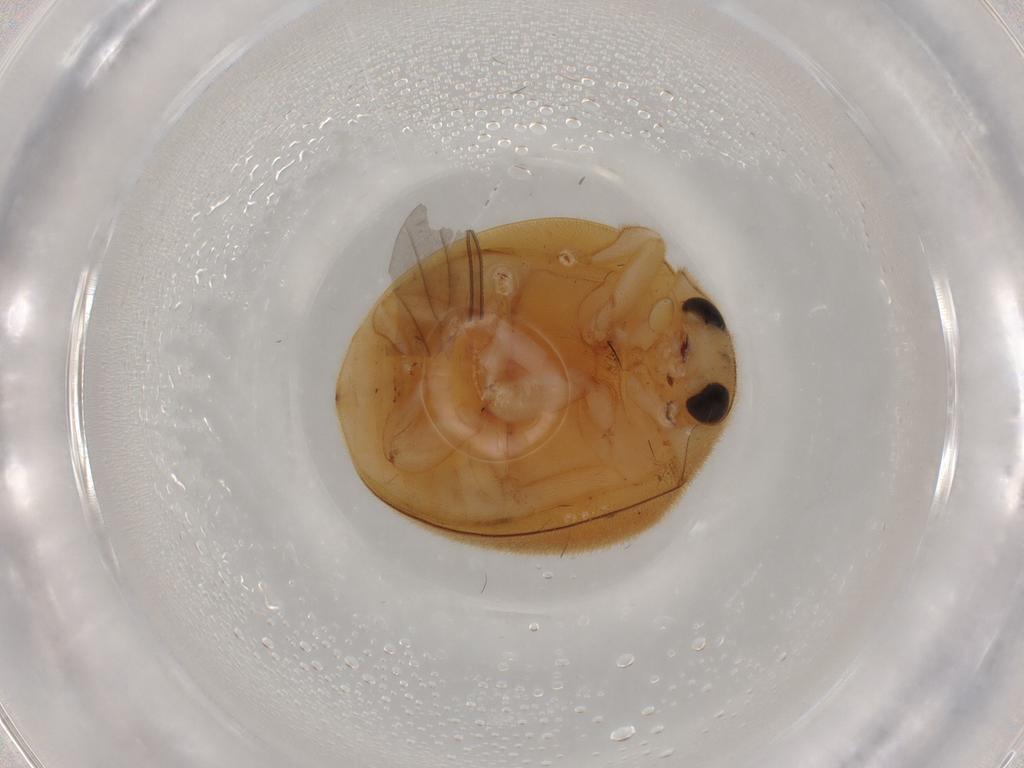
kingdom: Animalia
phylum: Arthropoda
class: Insecta
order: Coleoptera
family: Coccinellidae
